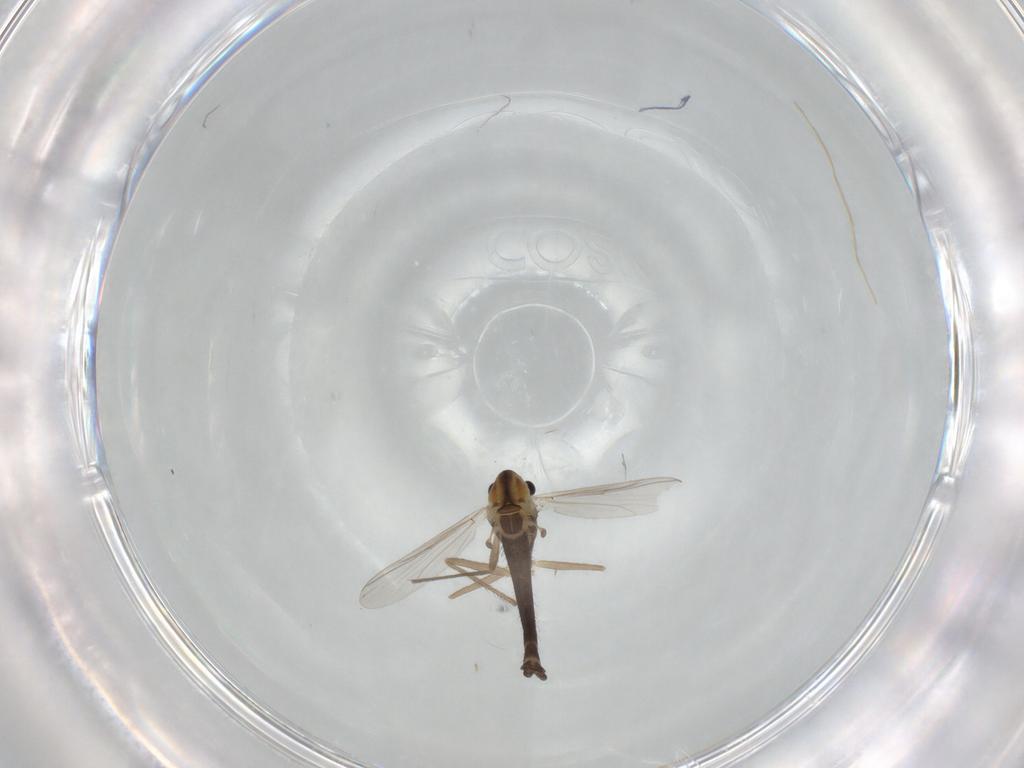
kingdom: Animalia
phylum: Arthropoda
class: Insecta
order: Diptera
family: Chironomidae
